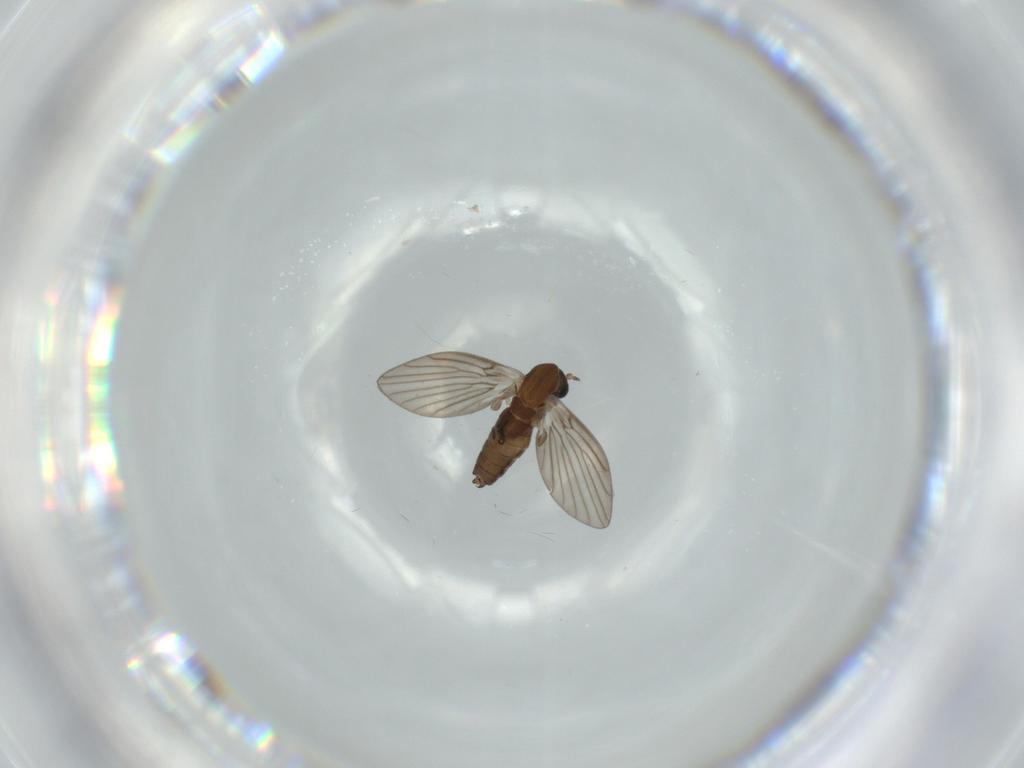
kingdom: Animalia
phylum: Arthropoda
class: Insecta
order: Diptera
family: Psychodidae
